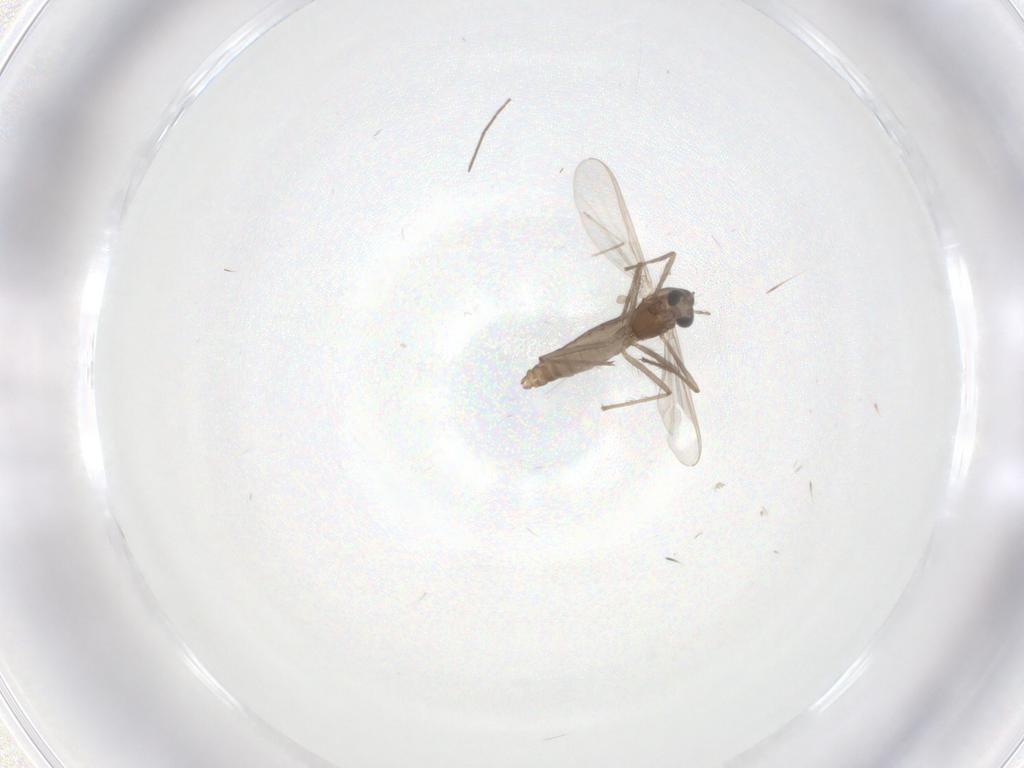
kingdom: Animalia
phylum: Arthropoda
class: Insecta
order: Diptera
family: Chironomidae
